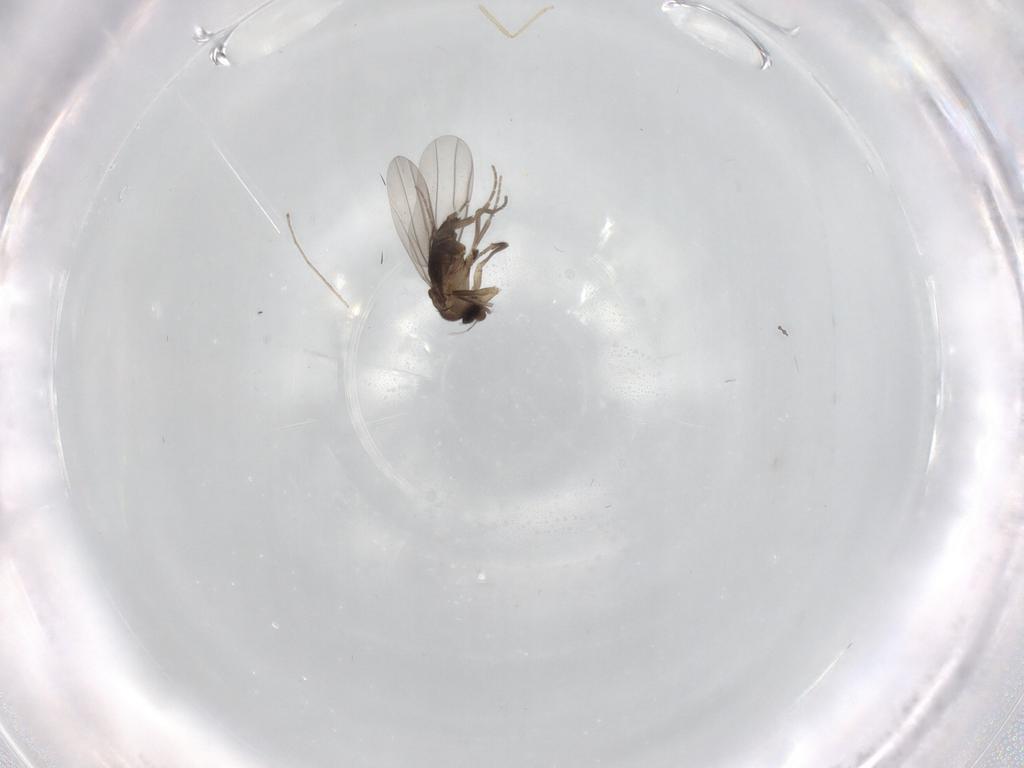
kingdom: Animalia
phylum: Arthropoda
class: Insecta
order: Diptera
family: Phoridae
